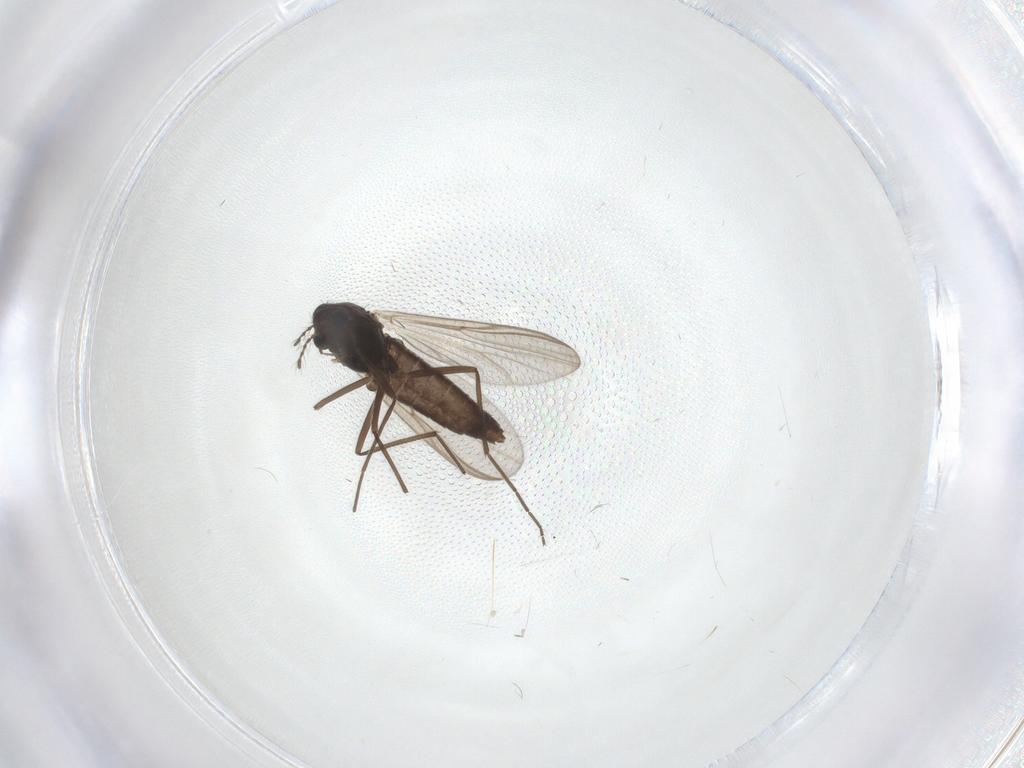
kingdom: Animalia
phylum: Arthropoda
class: Insecta
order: Diptera
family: Chironomidae
